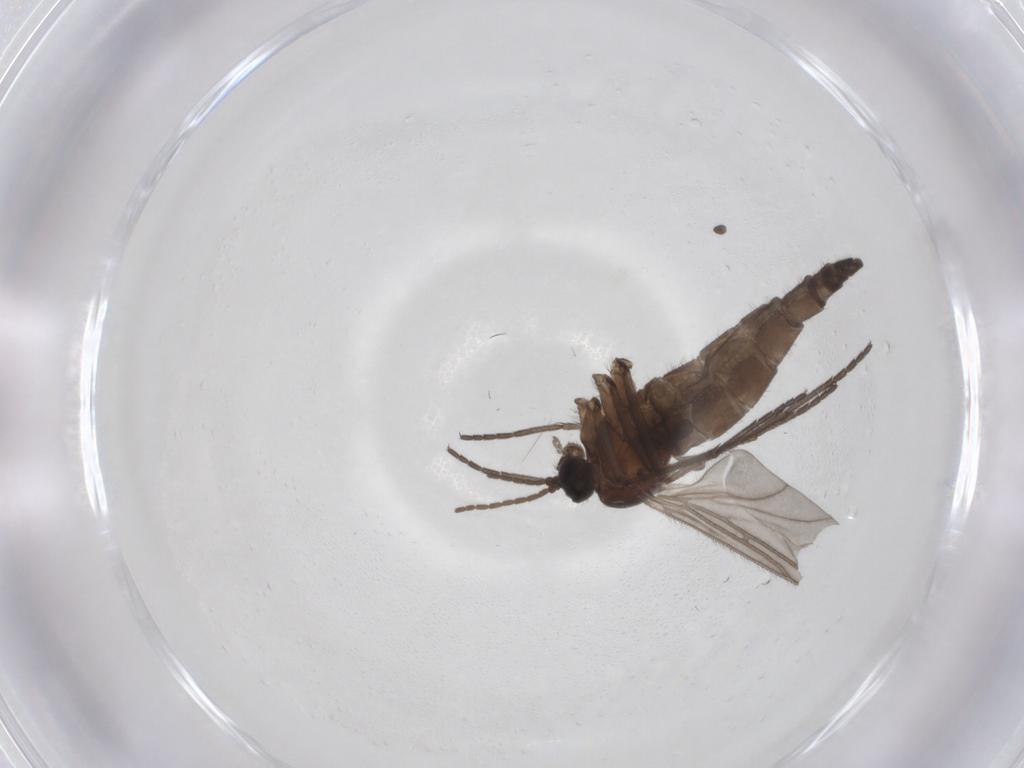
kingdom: Animalia
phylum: Arthropoda
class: Insecta
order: Diptera
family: Sciaridae
